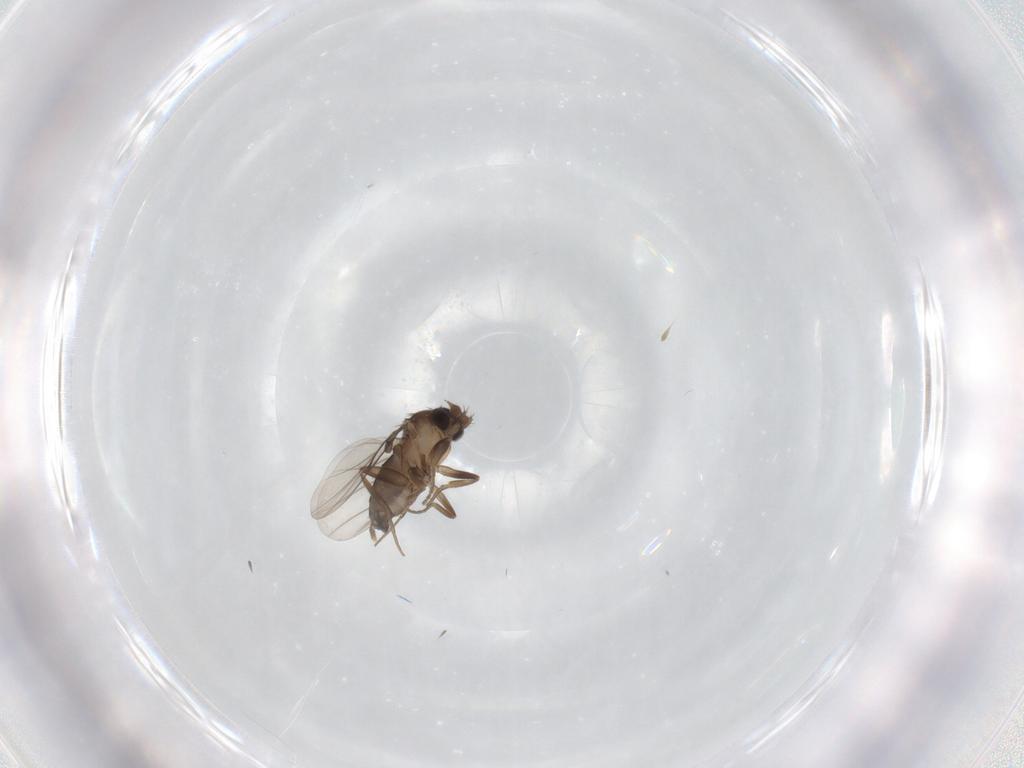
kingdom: Animalia
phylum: Arthropoda
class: Insecta
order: Diptera
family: Phoridae
